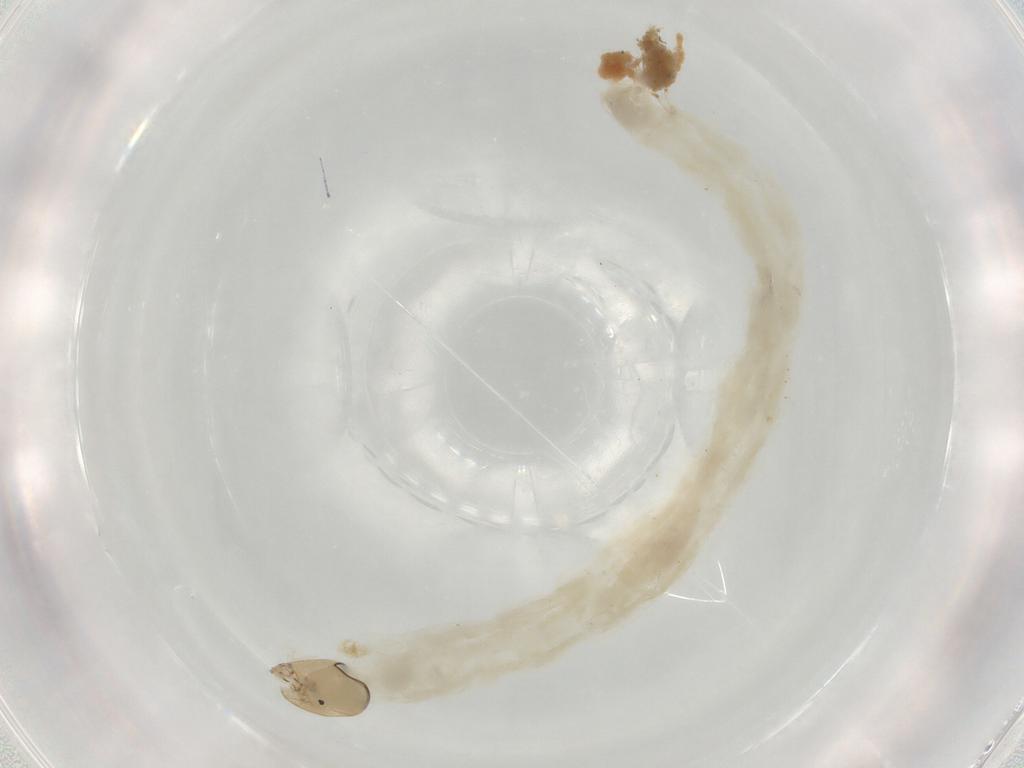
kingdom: Animalia
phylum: Arthropoda
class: Insecta
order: Diptera
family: Chironomidae
